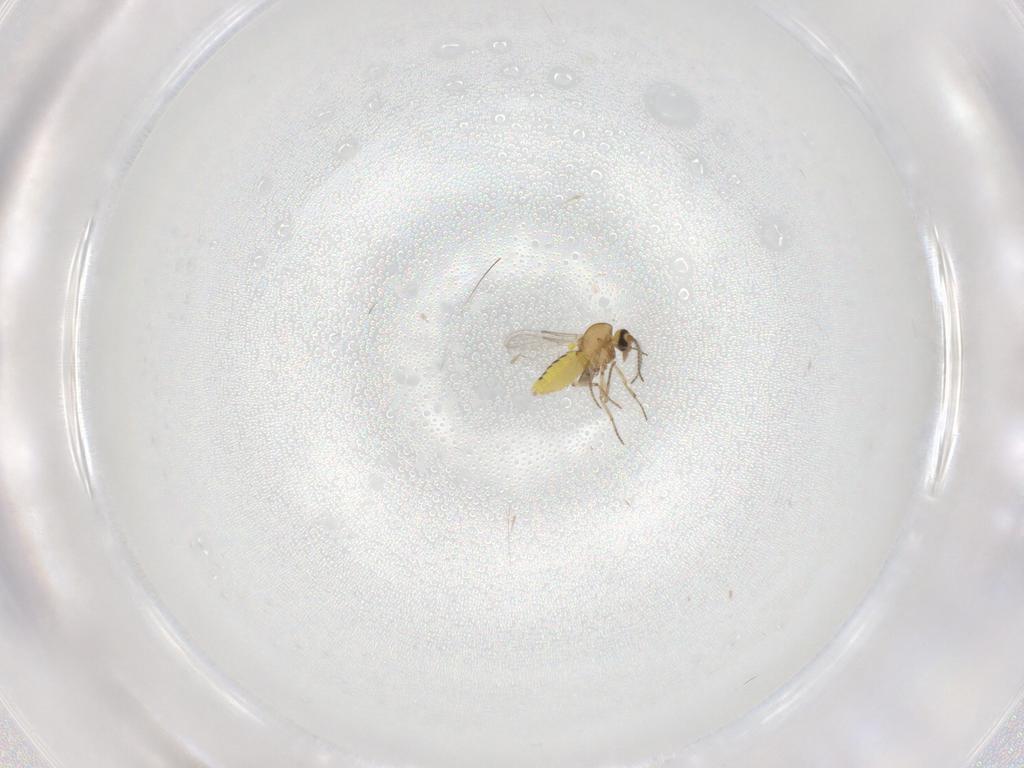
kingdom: Animalia
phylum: Arthropoda
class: Insecta
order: Diptera
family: Ceratopogonidae
